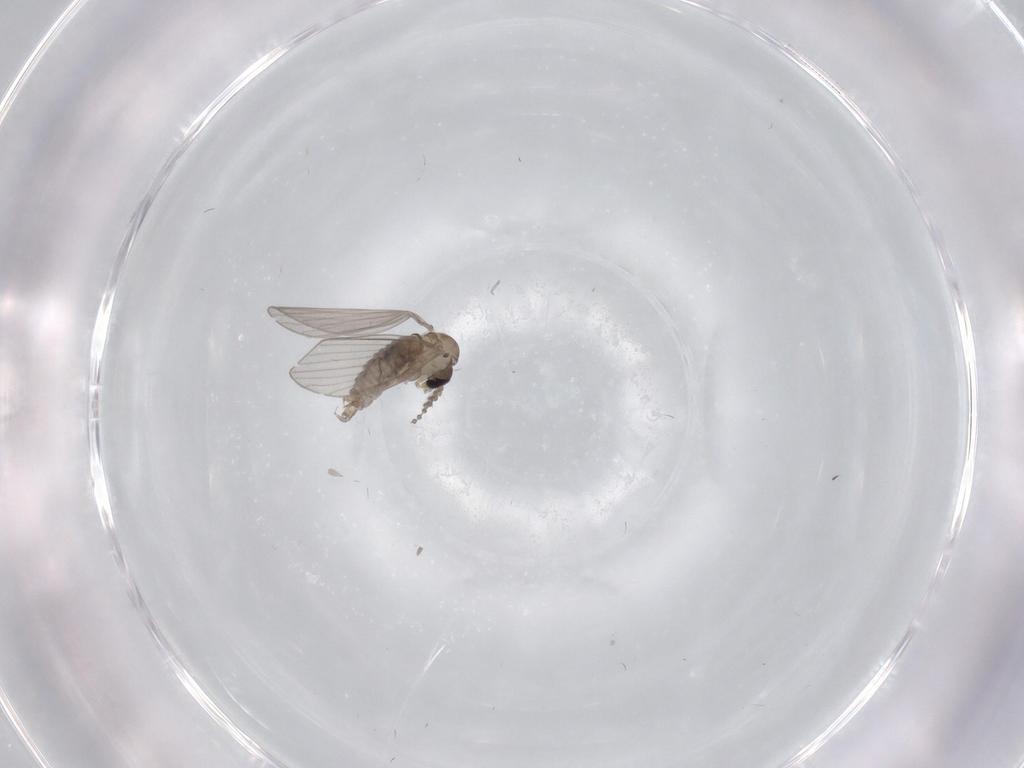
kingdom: Animalia
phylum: Arthropoda
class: Insecta
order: Diptera
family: Psychodidae
